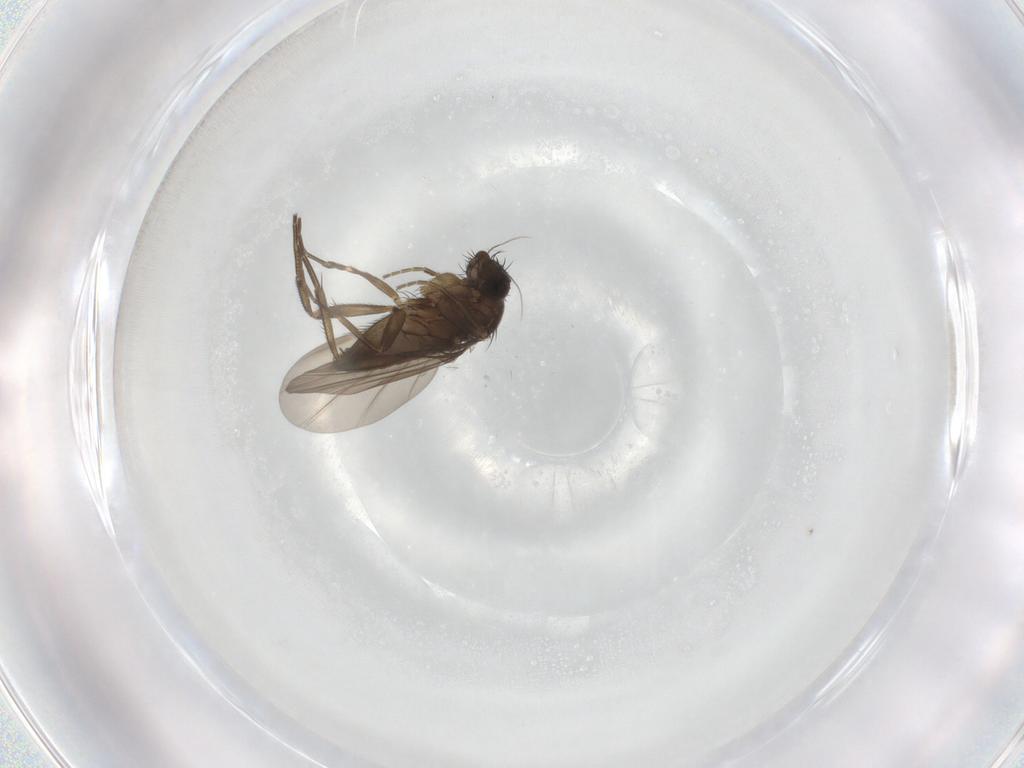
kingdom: Animalia
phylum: Arthropoda
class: Insecta
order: Diptera
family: Phoridae
